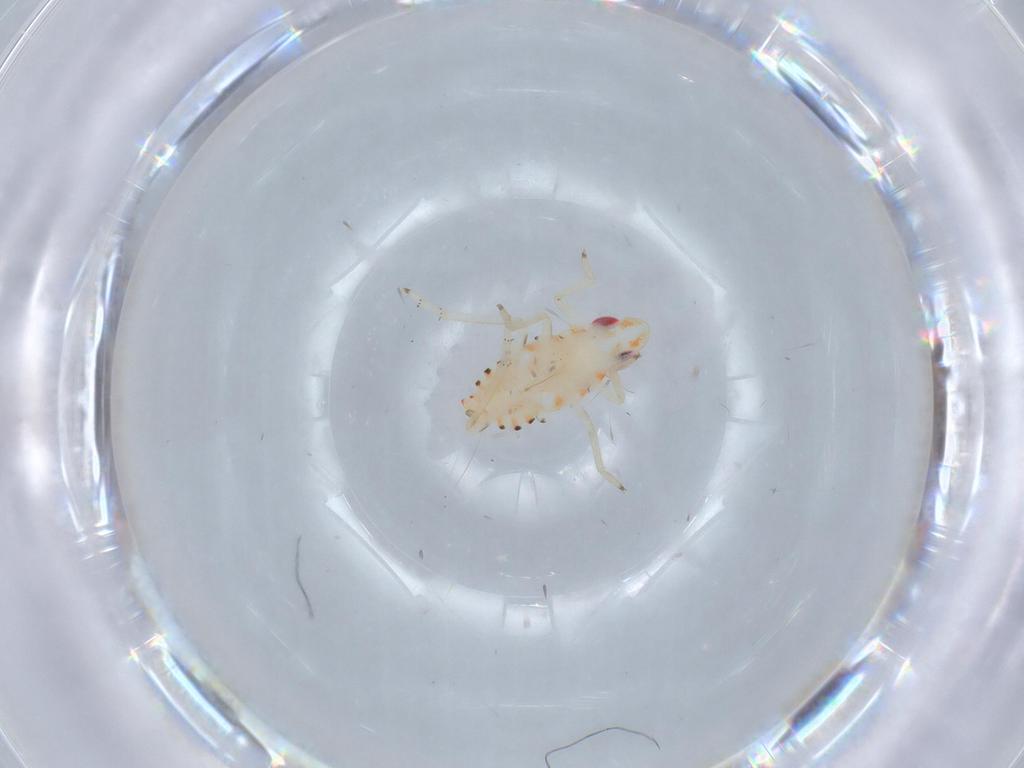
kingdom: Animalia
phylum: Arthropoda
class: Insecta
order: Hemiptera
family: Tropiduchidae
